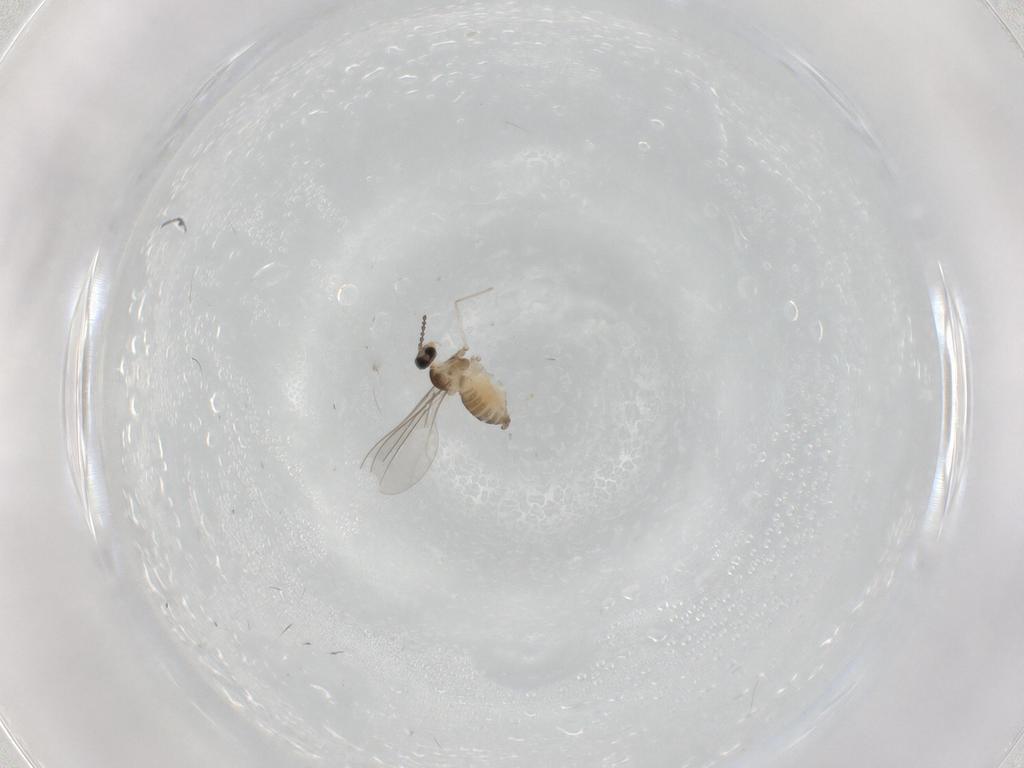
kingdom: Animalia
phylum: Arthropoda
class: Insecta
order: Diptera
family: Cecidomyiidae
